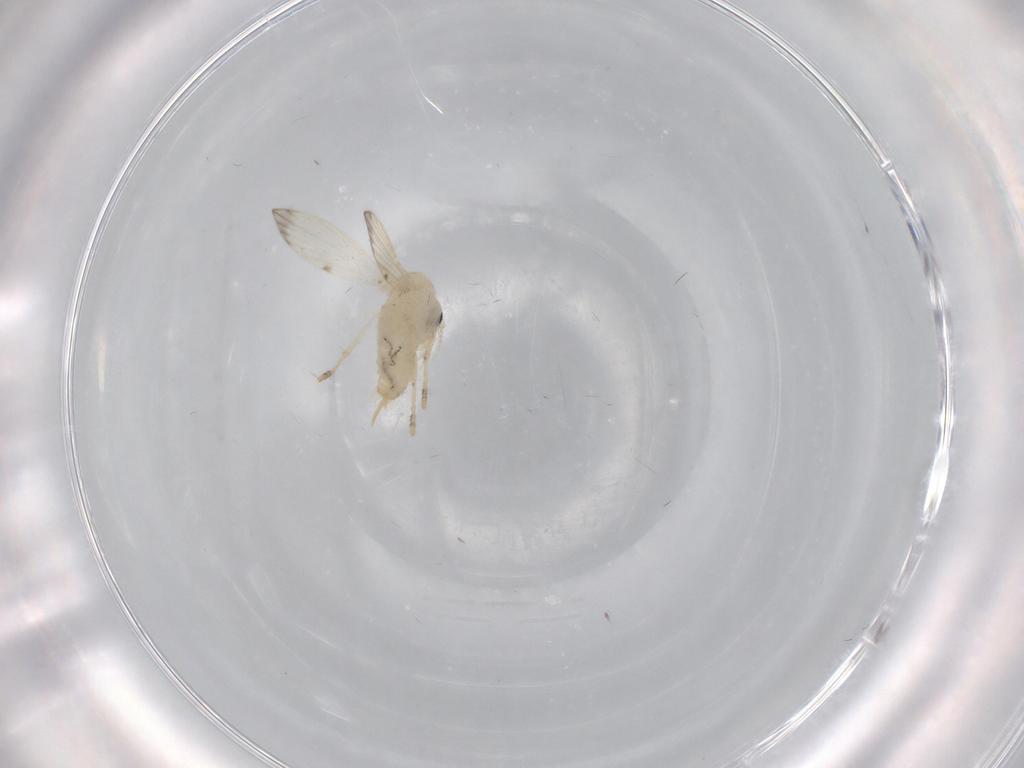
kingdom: Animalia
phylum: Arthropoda
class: Insecta
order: Diptera
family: Psychodidae
